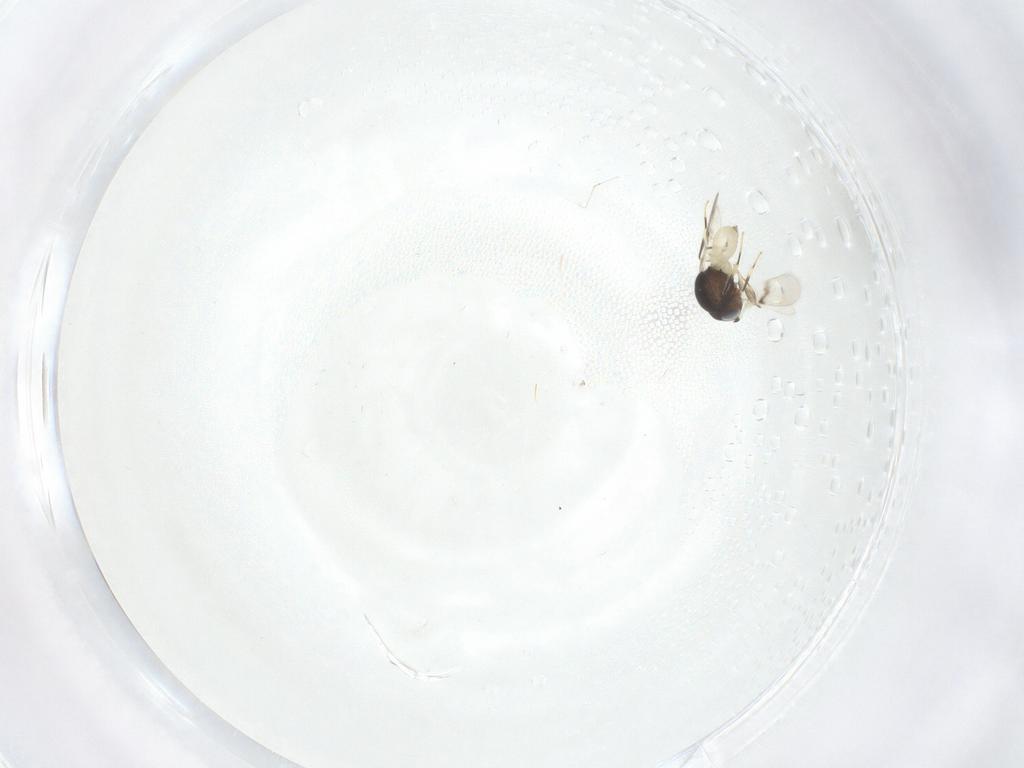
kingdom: Animalia
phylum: Arthropoda
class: Insecta
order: Hymenoptera
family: Scelionidae
